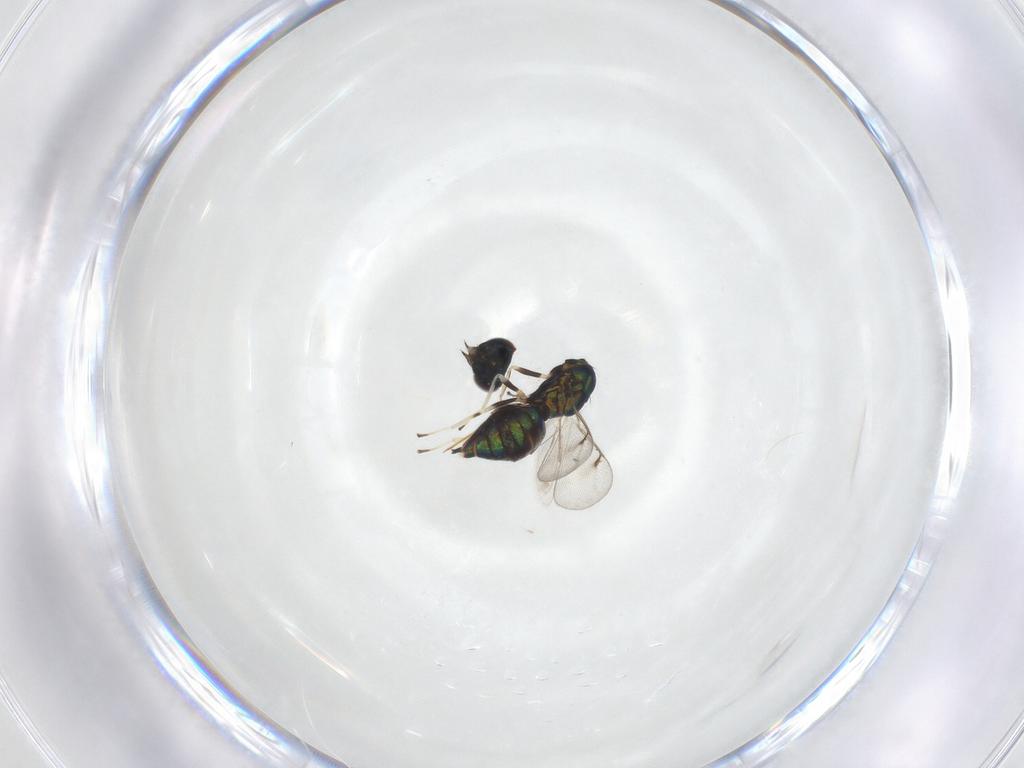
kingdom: Animalia
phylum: Arthropoda
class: Insecta
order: Hymenoptera
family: Eulophidae
